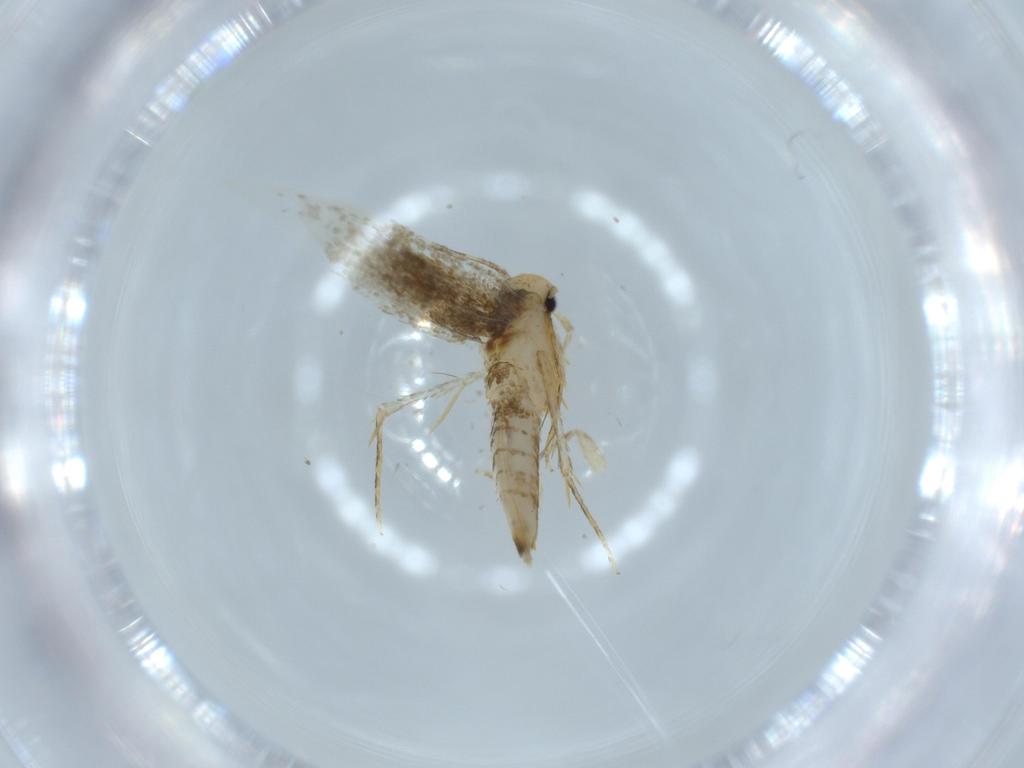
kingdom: Animalia
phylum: Arthropoda
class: Insecta
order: Lepidoptera
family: Tineidae
